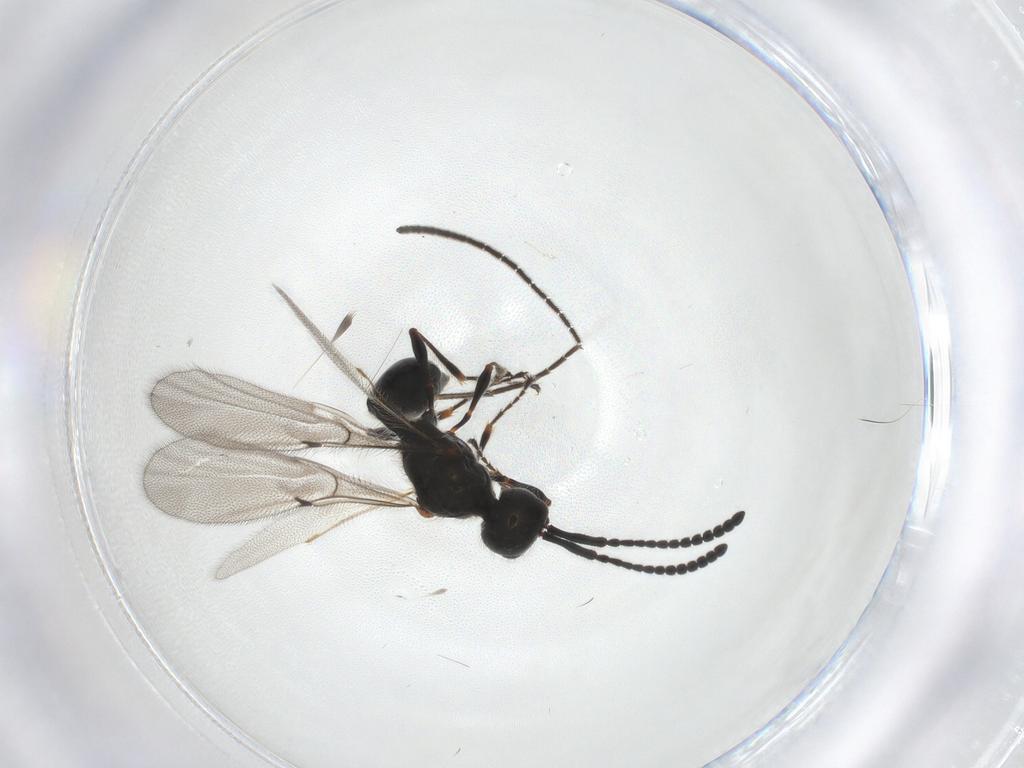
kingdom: Animalia
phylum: Arthropoda
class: Insecta
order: Hymenoptera
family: Diapriidae
